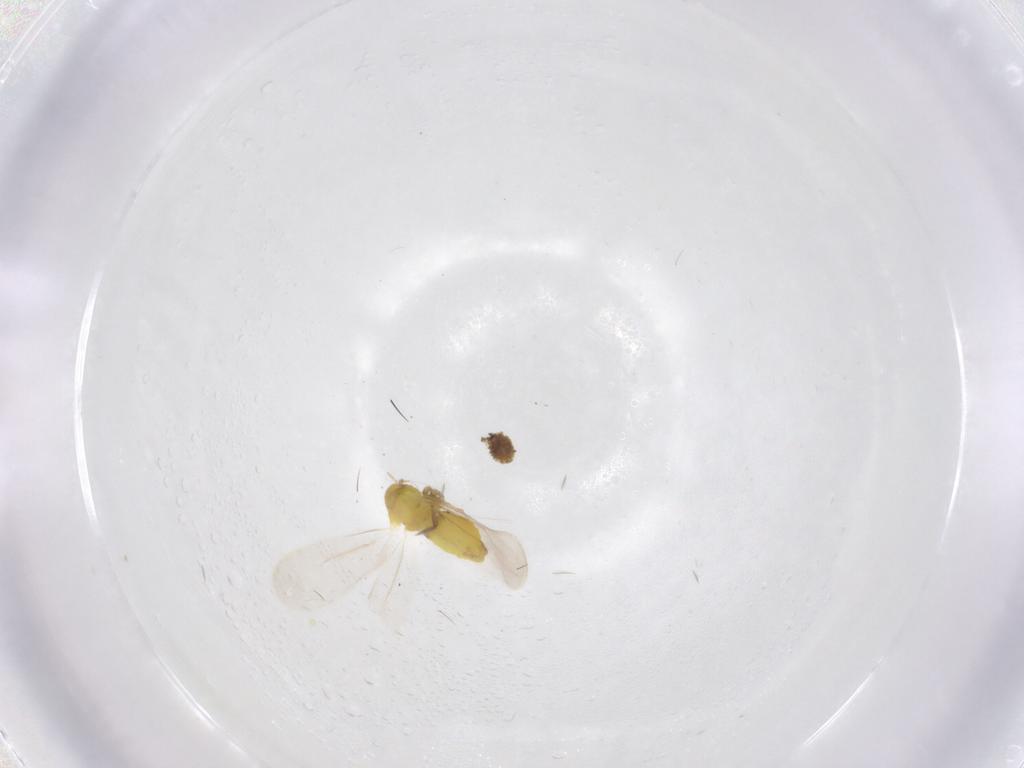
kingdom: Animalia
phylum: Arthropoda
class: Insecta
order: Hemiptera
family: Aleyrodidae
